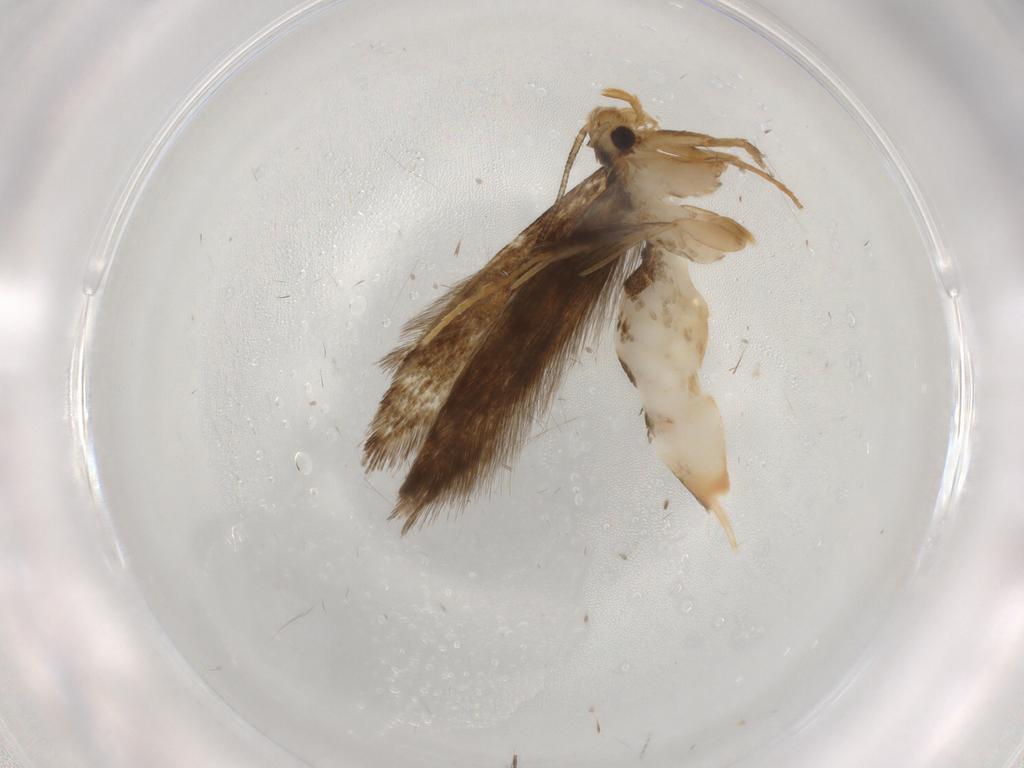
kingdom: Animalia
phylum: Arthropoda
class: Insecta
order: Lepidoptera
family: Tineidae
